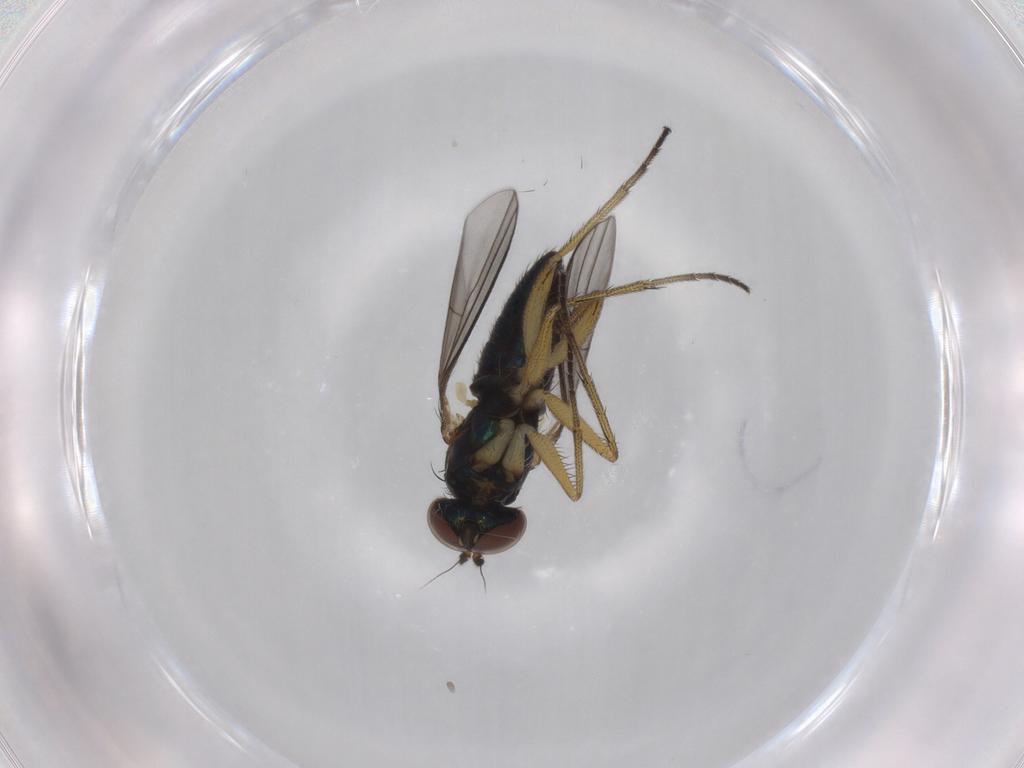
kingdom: Animalia
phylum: Arthropoda
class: Insecta
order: Diptera
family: Dolichopodidae
